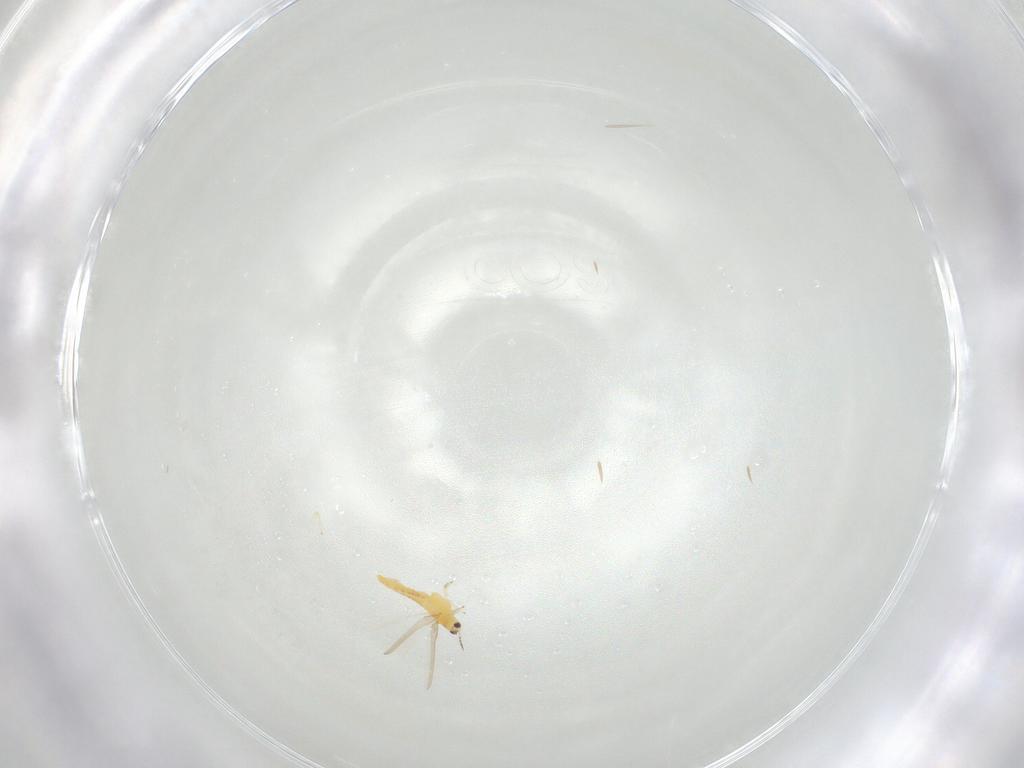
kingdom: Animalia
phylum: Arthropoda
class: Insecta
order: Thysanoptera
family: Thripidae
